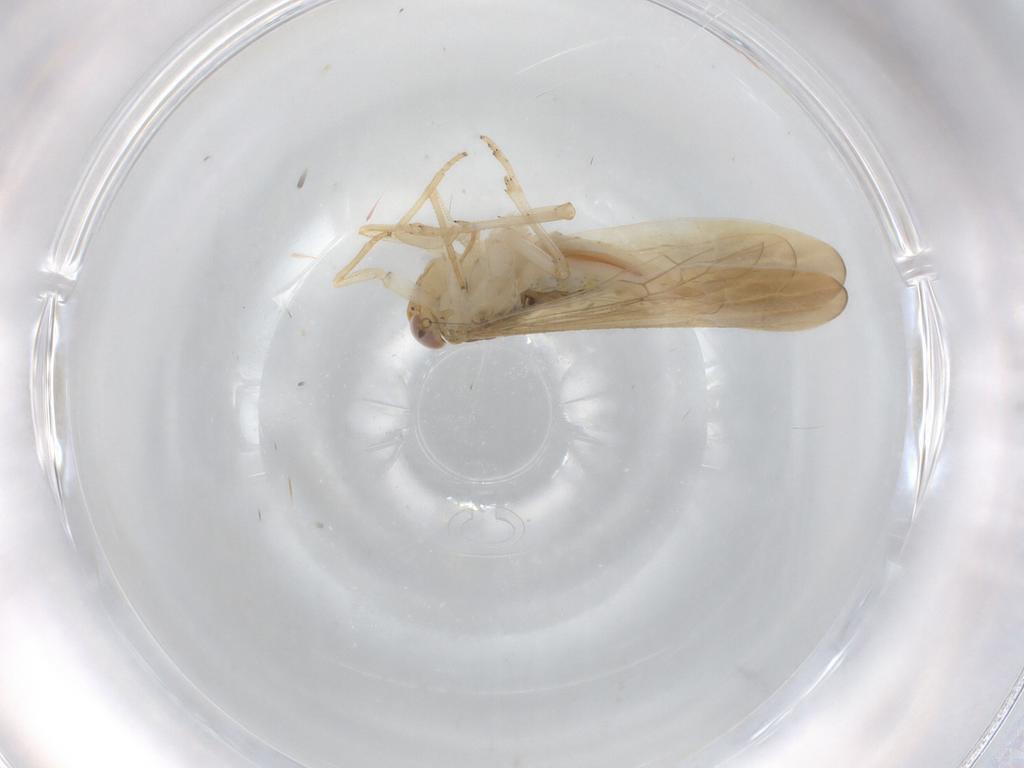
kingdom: Animalia
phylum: Arthropoda
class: Insecta
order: Hemiptera
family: Delphacidae
